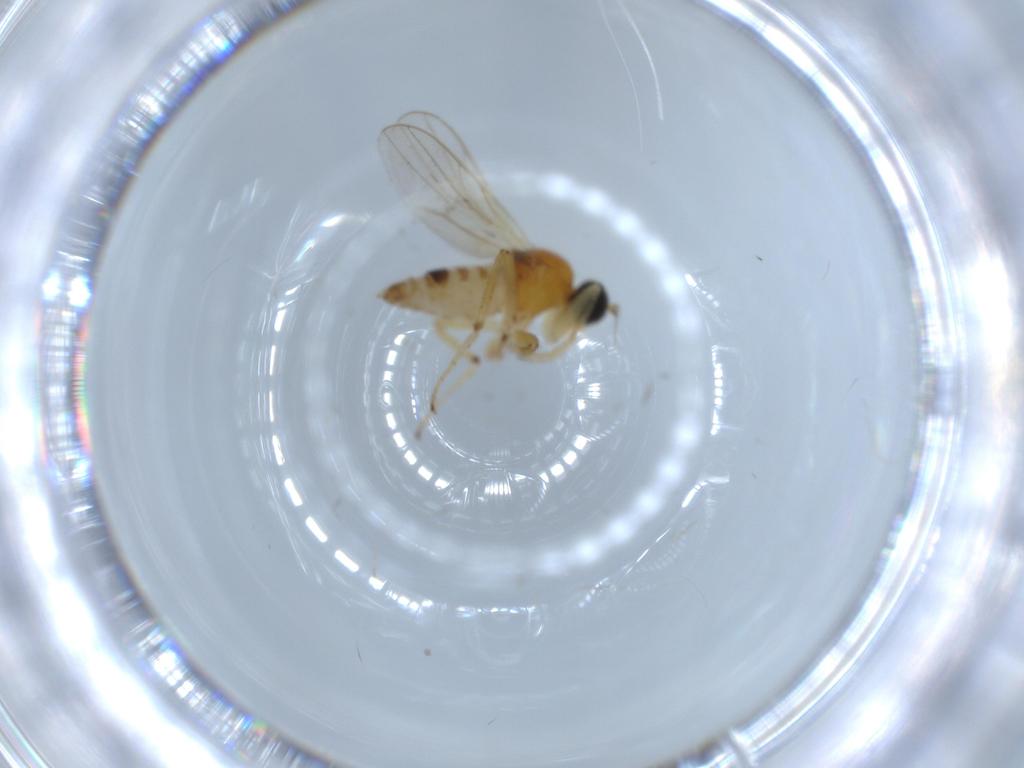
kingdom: Animalia
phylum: Arthropoda
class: Insecta
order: Diptera
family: Hybotidae
